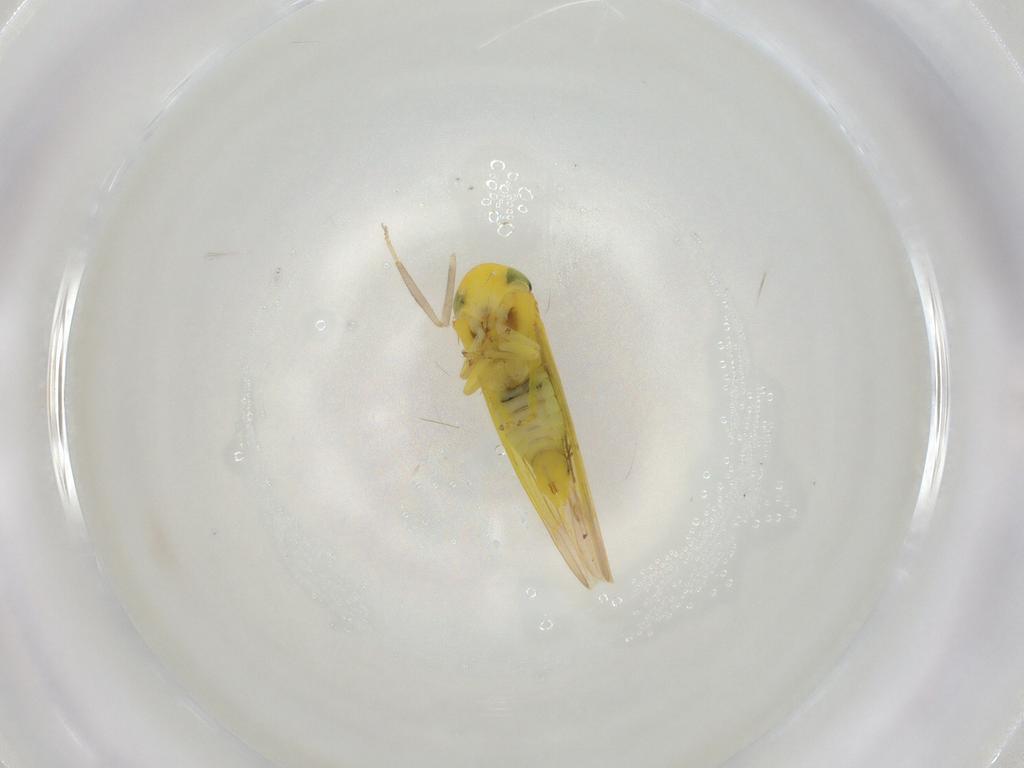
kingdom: Animalia
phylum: Arthropoda
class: Insecta
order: Hemiptera
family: Cicadellidae
